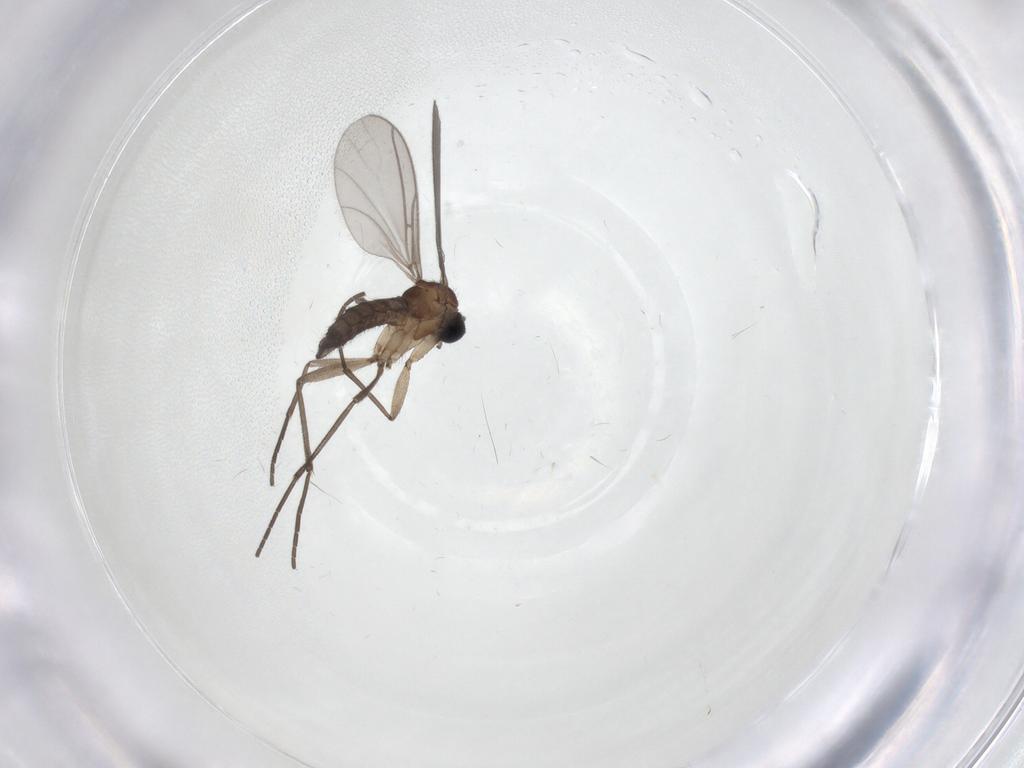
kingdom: Animalia
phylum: Arthropoda
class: Insecta
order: Diptera
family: Sciaridae
